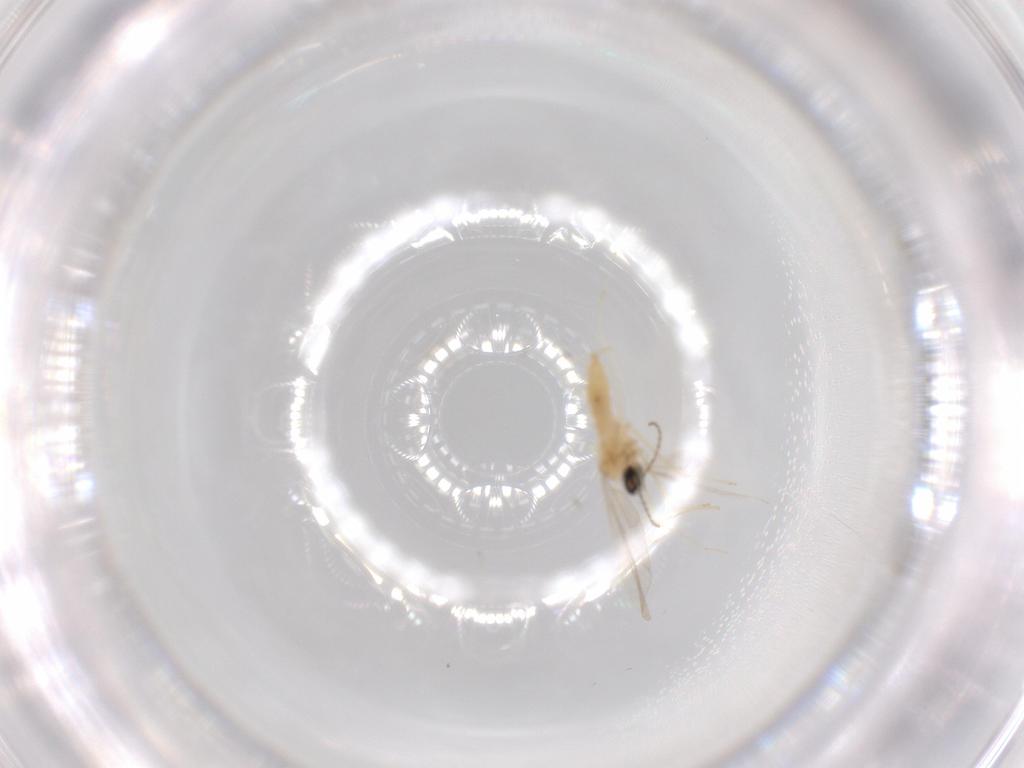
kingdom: Animalia
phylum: Arthropoda
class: Insecta
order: Diptera
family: Cecidomyiidae
